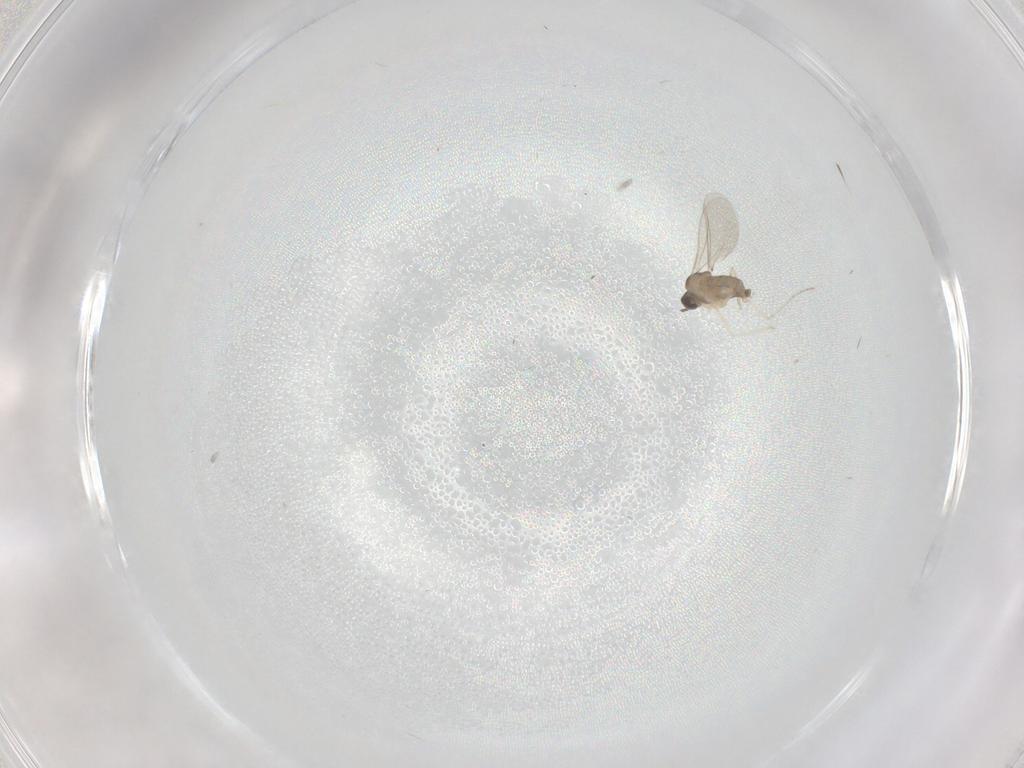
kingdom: Animalia
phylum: Arthropoda
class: Insecta
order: Diptera
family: Cecidomyiidae
